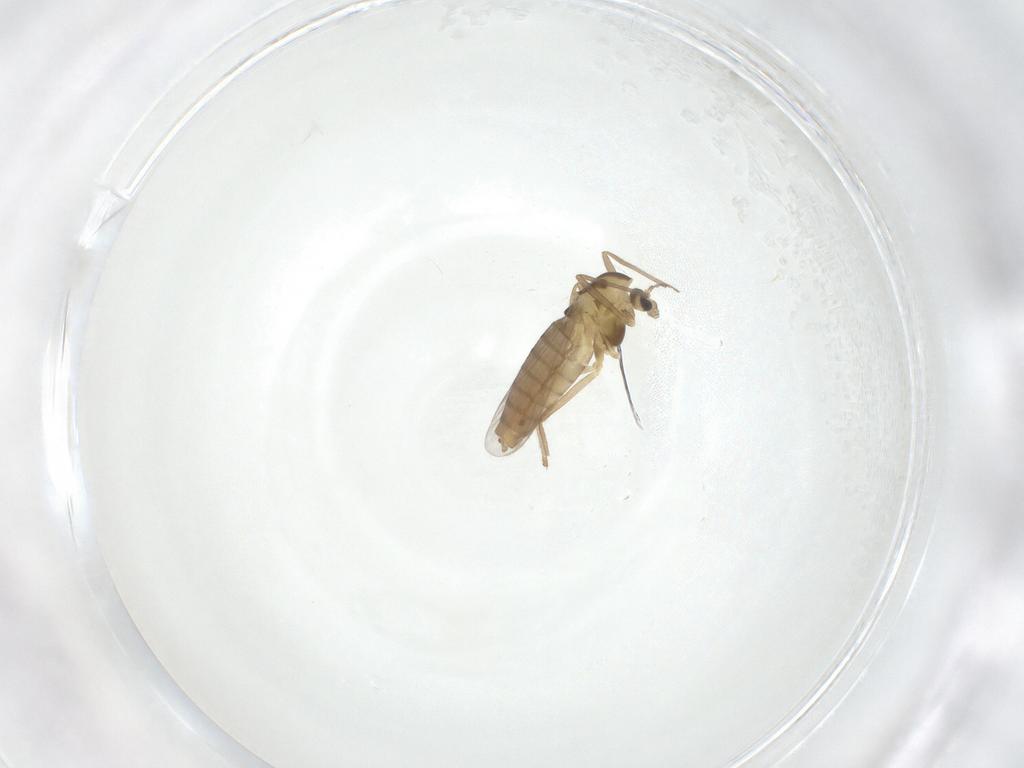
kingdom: Animalia
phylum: Arthropoda
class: Insecta
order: Diptera
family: Chironomidae
